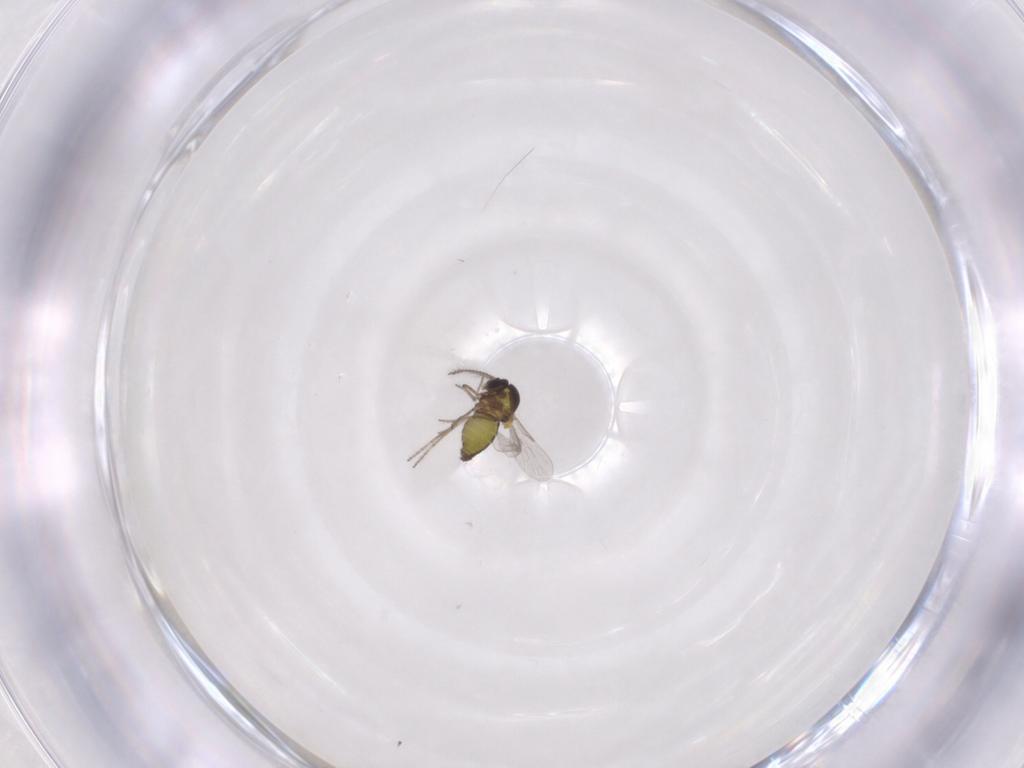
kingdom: Animalia
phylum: Arthropoda
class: Insecta
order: Diptera
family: Ceratopogonidae
